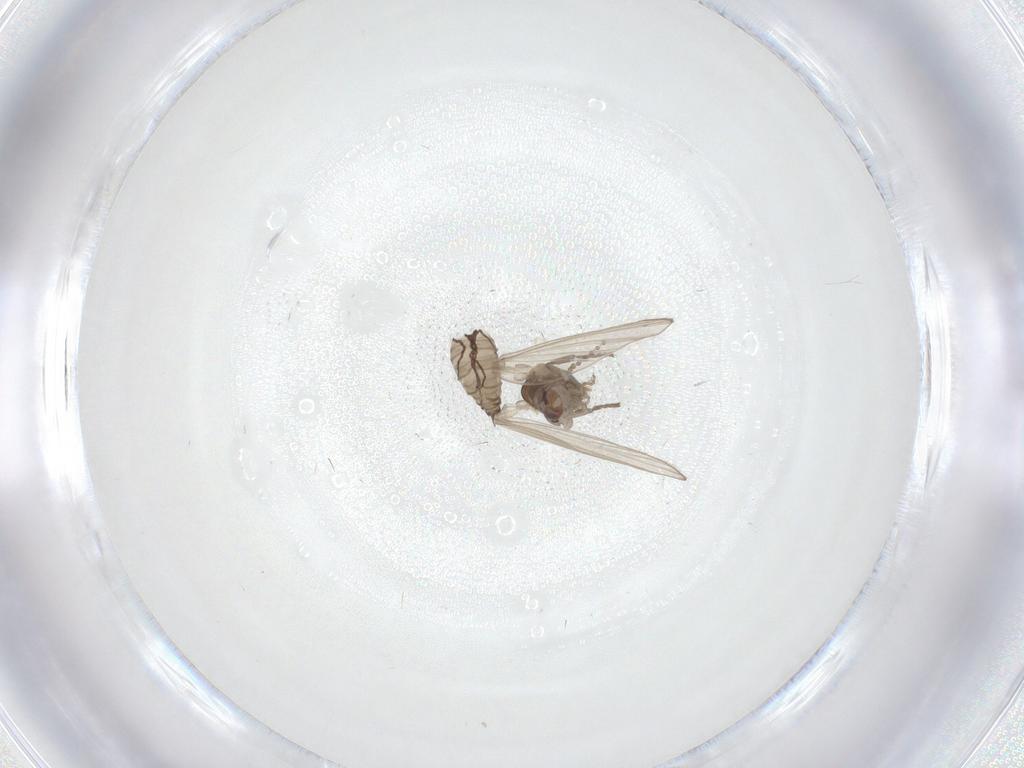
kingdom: Animalia
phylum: Arthropoda
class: Insecta
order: Diptera
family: Psychodidae
